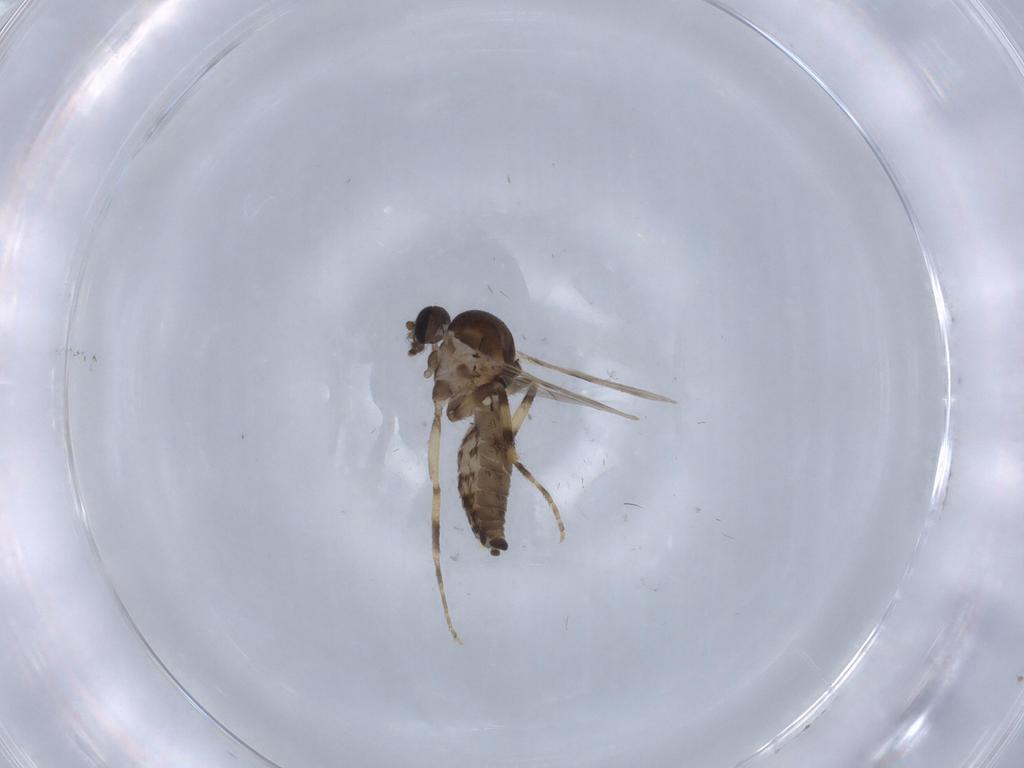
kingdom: Animalia
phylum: Arthropoda
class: Insecta
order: Diptera
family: Ceratopogonidae
